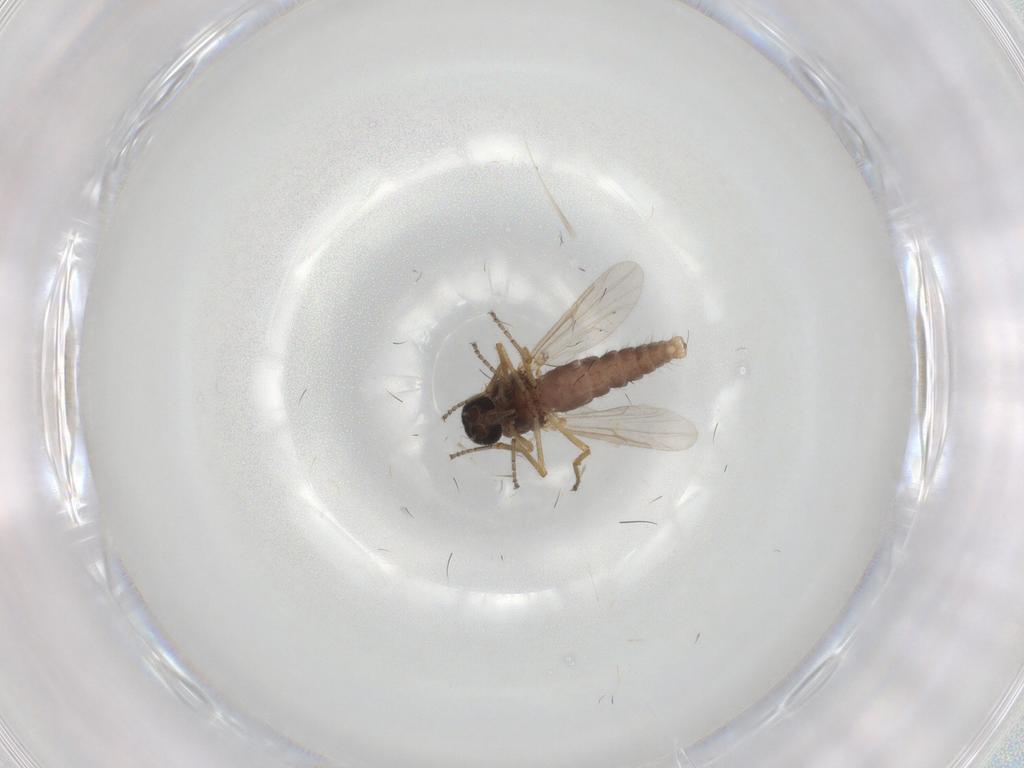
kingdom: Animalia
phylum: Arthropoda
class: Insecta
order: Diptera
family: Ceratopogonidae
